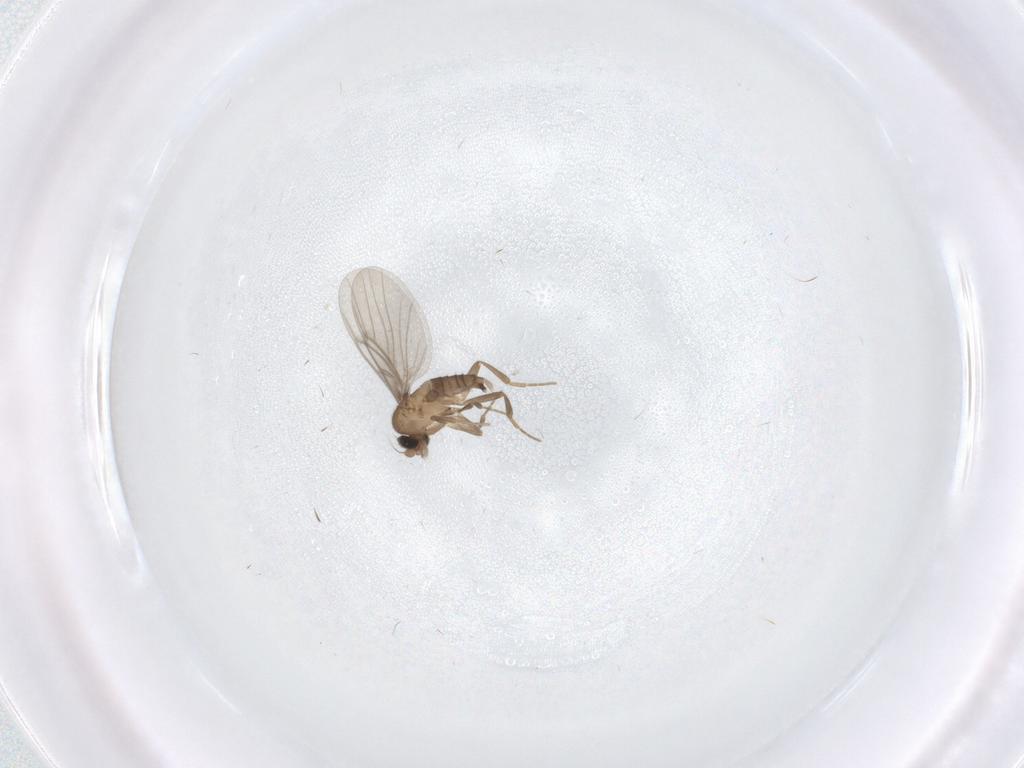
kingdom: Animalia
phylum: Arthropoda
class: Insecta
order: Diptera
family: Phoridae
